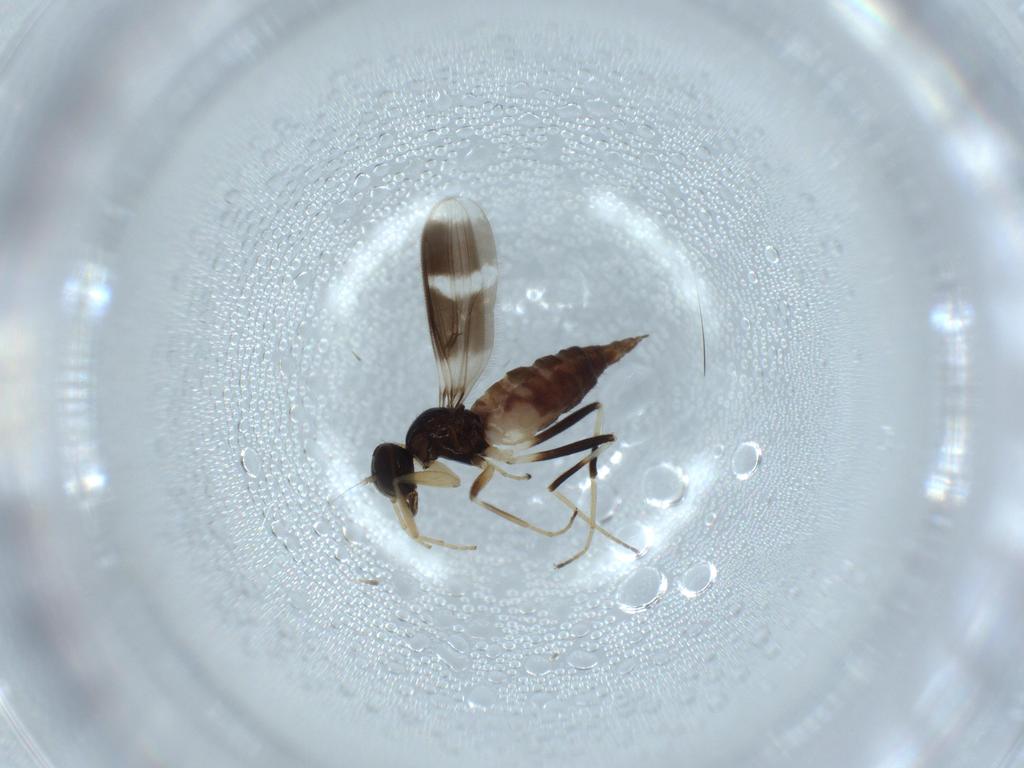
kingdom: Animalia
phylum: Arthropoda
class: Insecta
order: Diptera
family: Hybotidae
